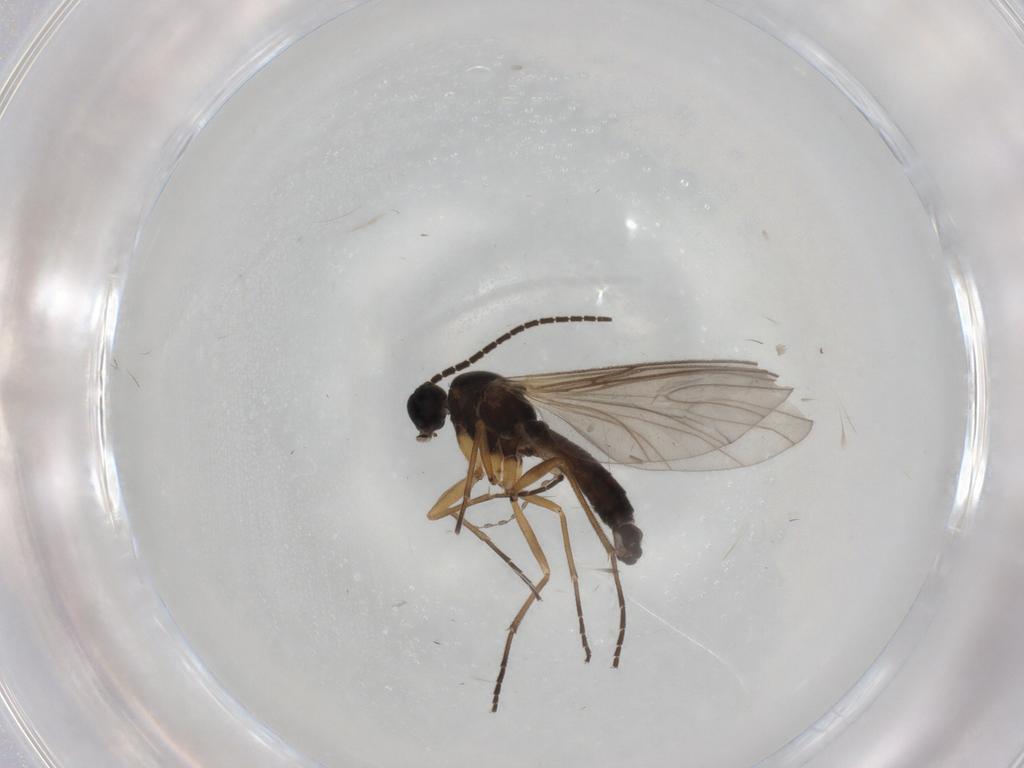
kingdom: Animalia
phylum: Arthropoda
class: Insecta
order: Diptera
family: Sciaridae
